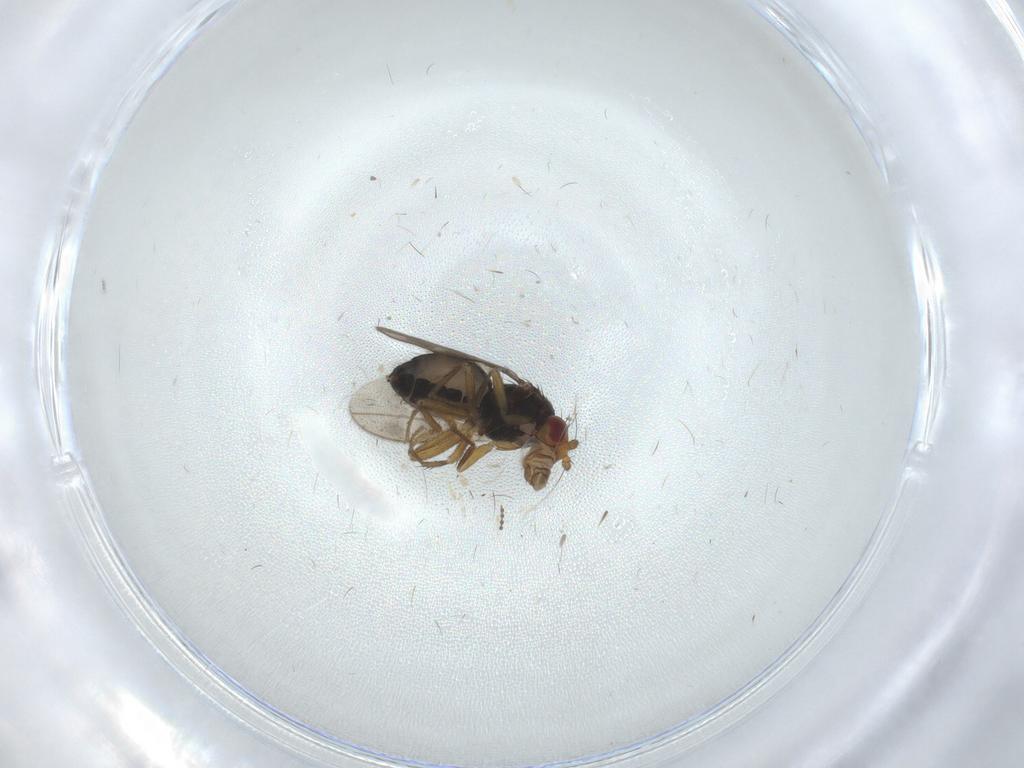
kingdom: Animalia
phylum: Arthropoda
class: Insecta
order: Diptera
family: Sphaeroceridae
